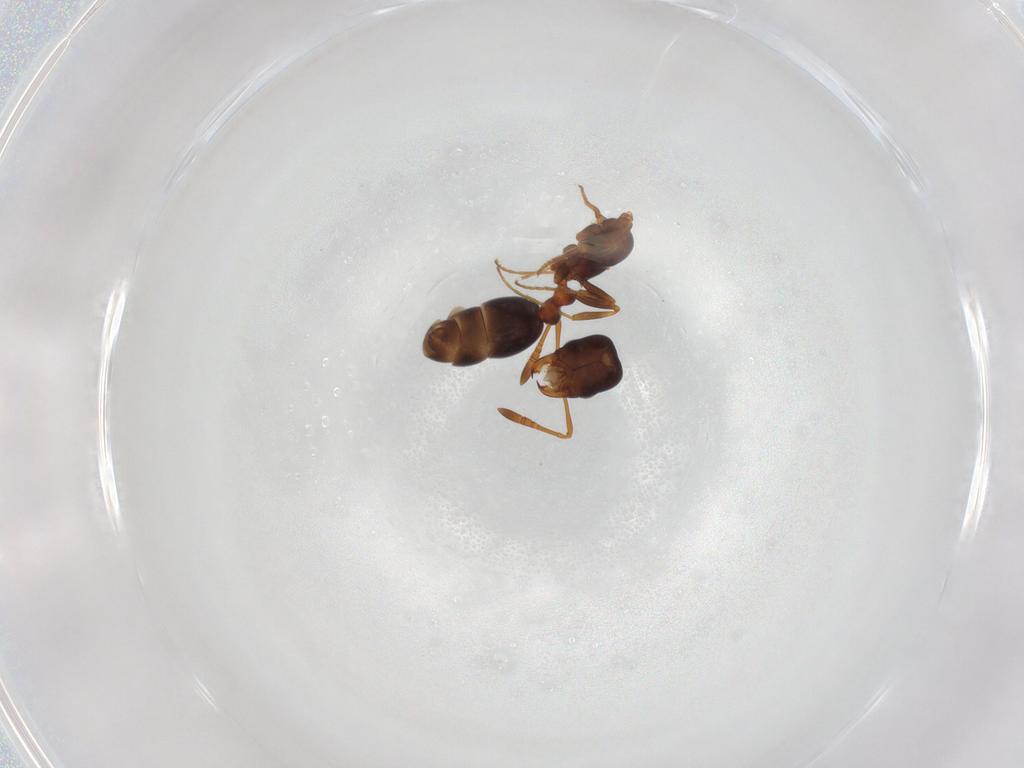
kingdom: Animalia
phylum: Arthropoda
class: Insecta
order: Hymenoptera
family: Formicidae
